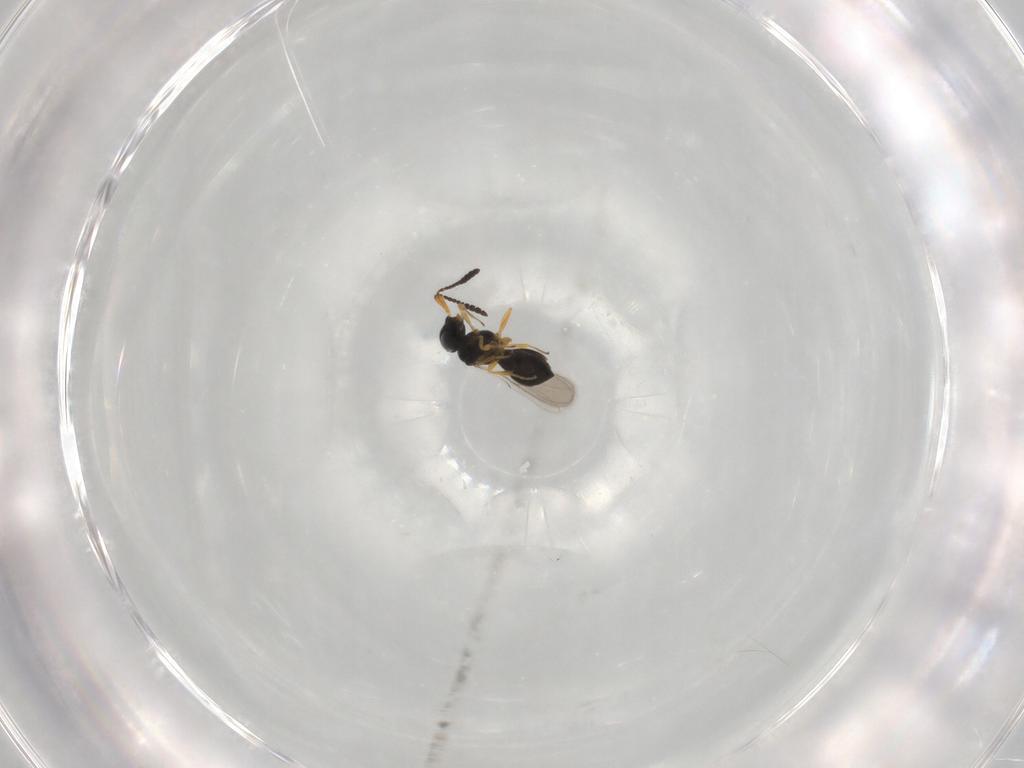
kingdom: Animalia
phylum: Arthropoda
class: Insecta
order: Hymenoptera
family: Scelionidae
